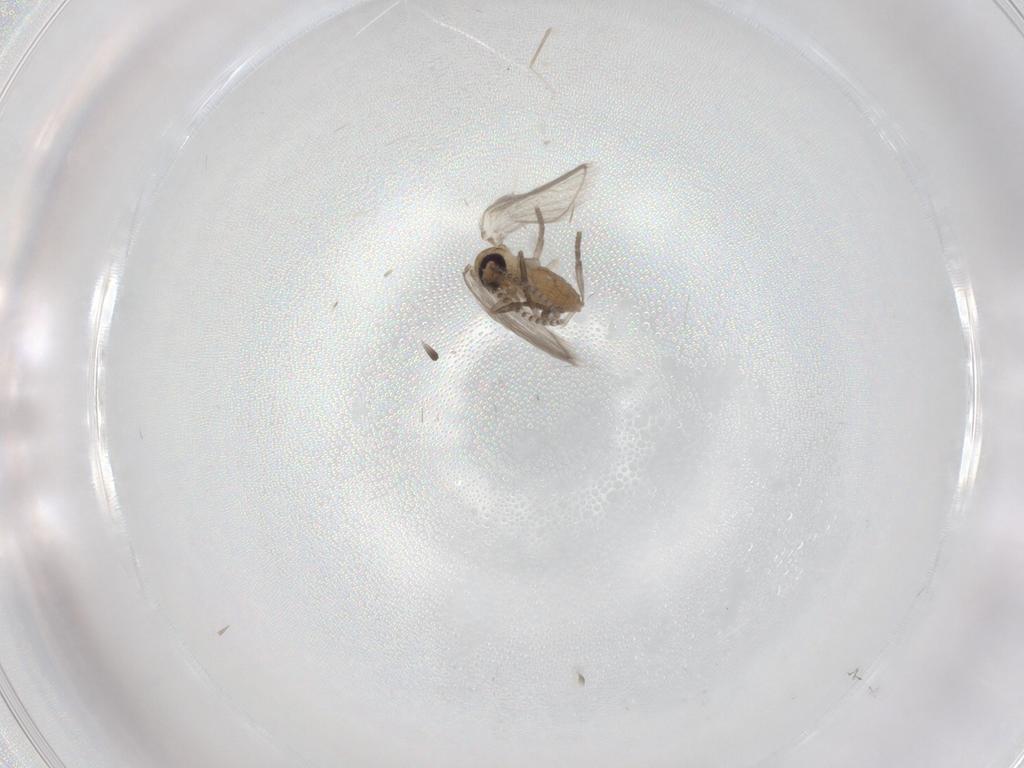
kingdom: Animalia
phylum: Arthropoda
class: Insecta
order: Diptera
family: Psychodidae
